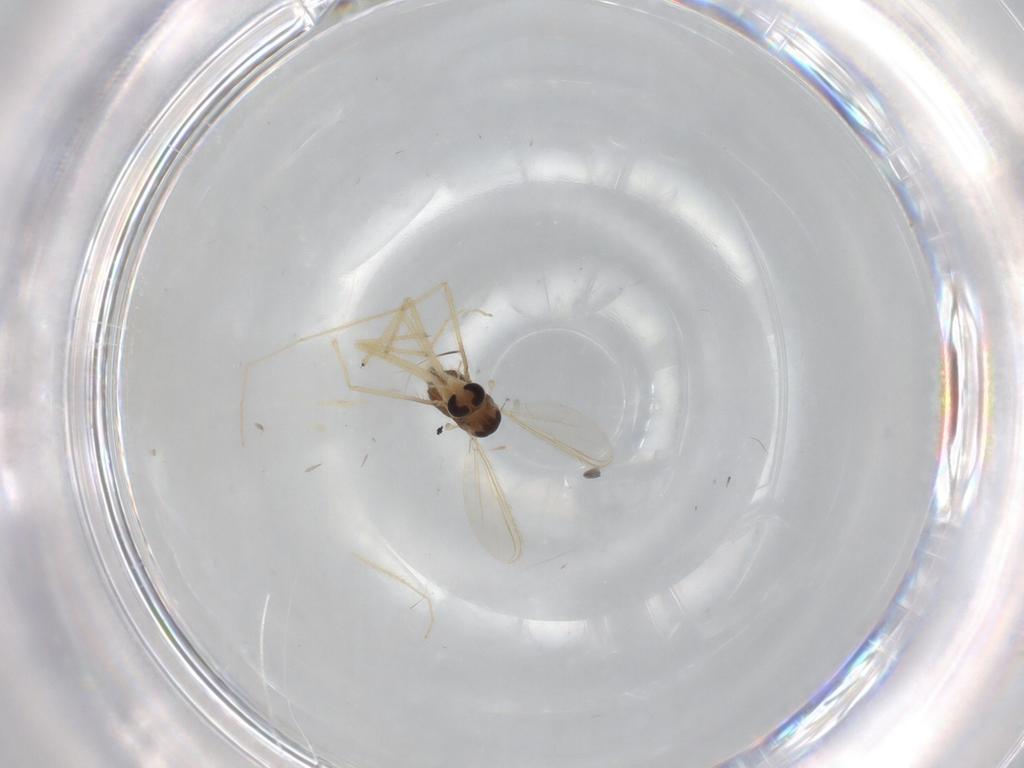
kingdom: Animalia
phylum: Arthropoda
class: Insecta
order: Diptera
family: Chironomidae
